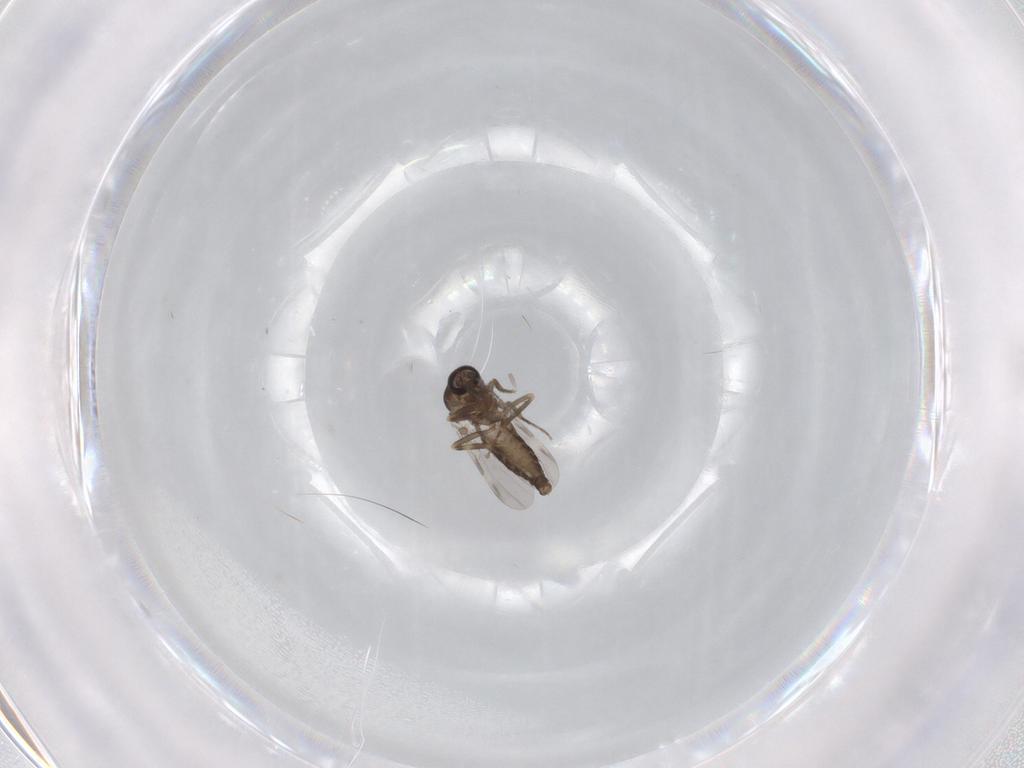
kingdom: Animalia
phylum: Arthropoda
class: Insecta
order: Diptera
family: Ceratopogonidae
